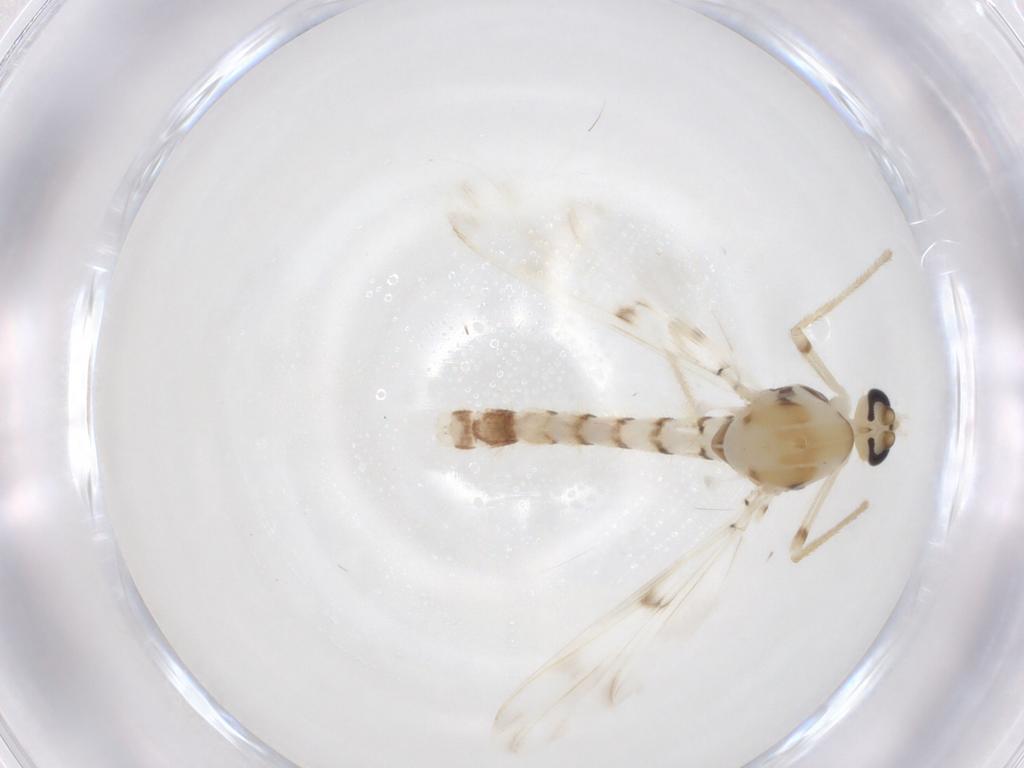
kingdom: Animalia
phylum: Arthropoda
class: Insecta
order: Diptera
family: Chironomidae
